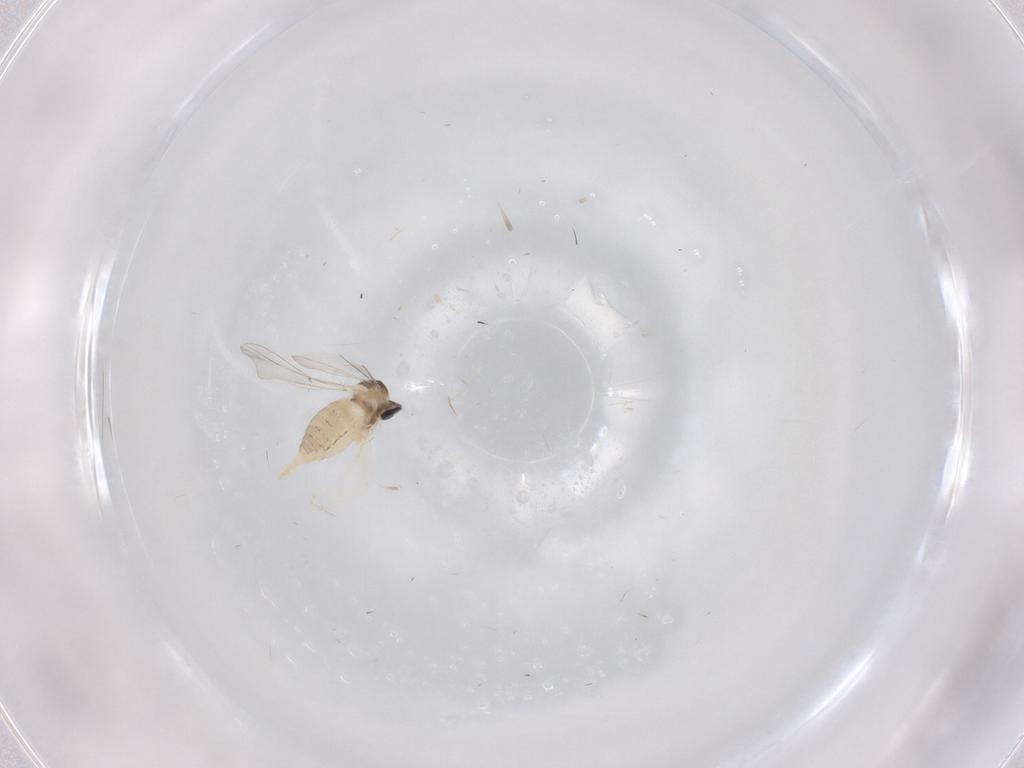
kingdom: Animalia
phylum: Arthropoda
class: Insecta
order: Diptera
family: Cecidomyiidae
